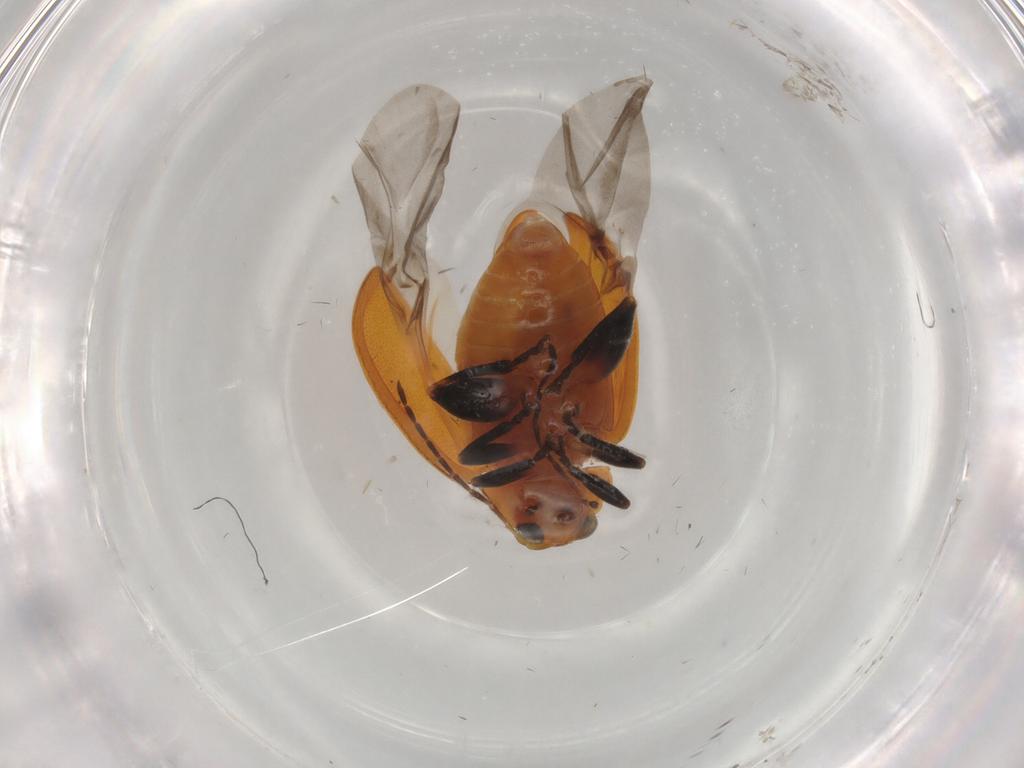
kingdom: Animalia
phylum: Arthropoda
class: Insecta
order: Coleoptera
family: Chrysomelidae
